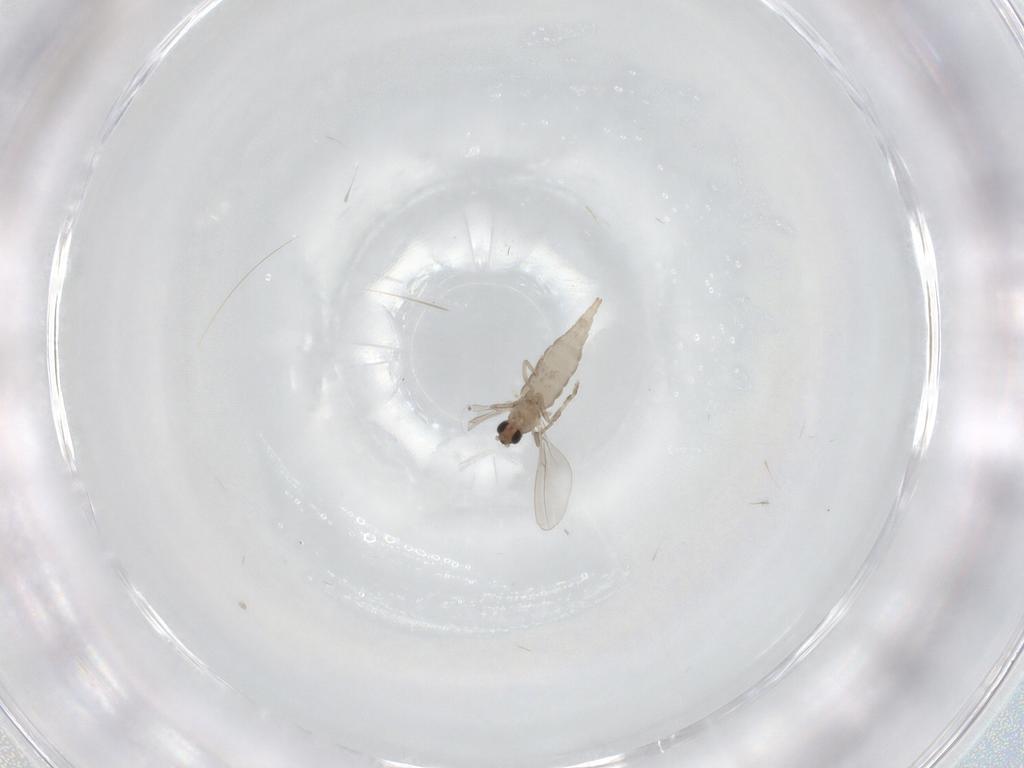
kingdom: Animalia
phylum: Arthropoda
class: Insecta
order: Diptera
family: Cecidomyiidae
